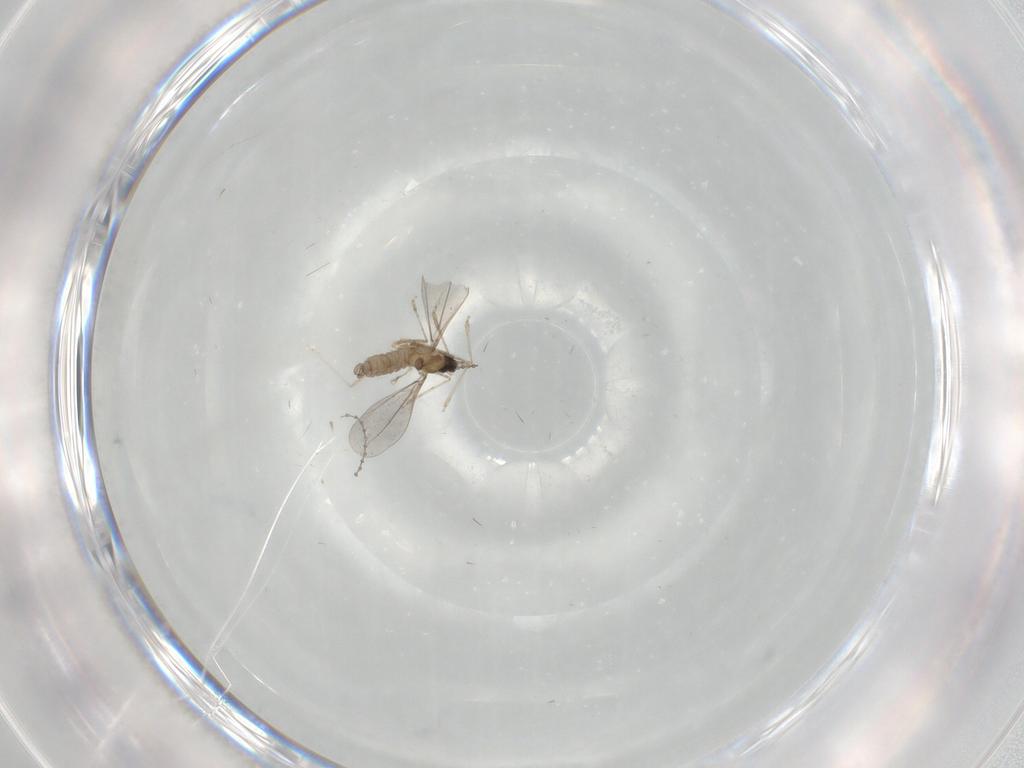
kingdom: Animalia
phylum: Arthropoda
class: Insecta
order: Diptera
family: Cecidomyiidae
